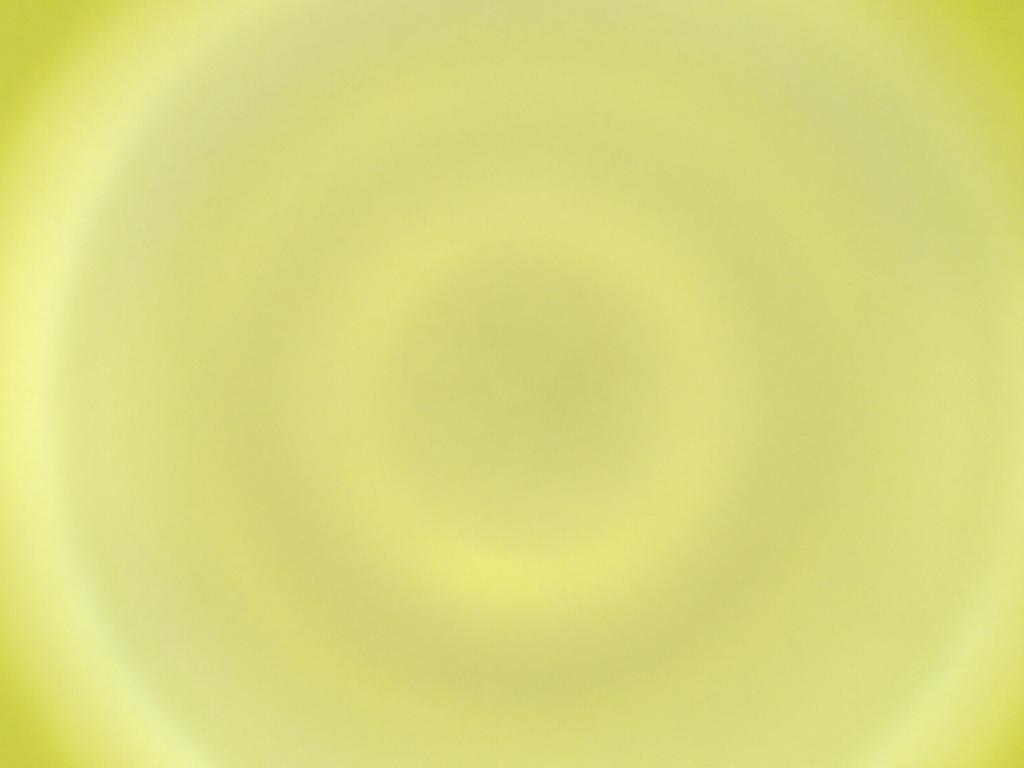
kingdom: Animalia
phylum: Arthropoda
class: Insecta
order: Diptera
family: Cecidomyiidae
